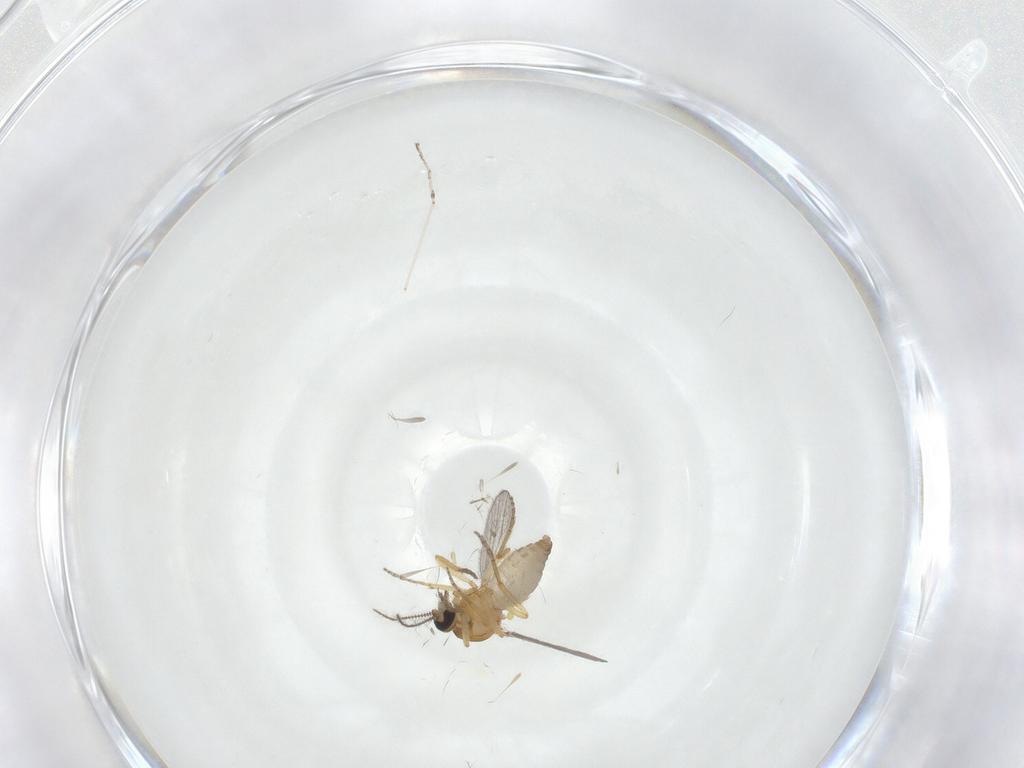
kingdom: Animalia
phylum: Arthropoda
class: Insecta
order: Diptera
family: Ceratopogonidae
